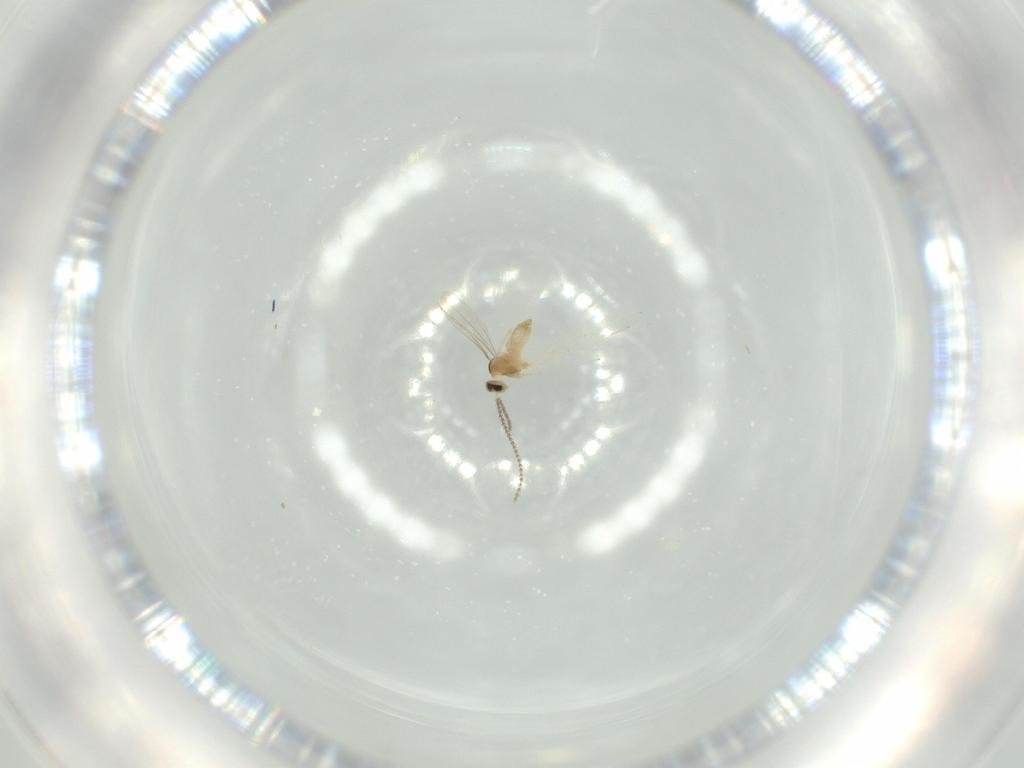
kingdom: Animalia
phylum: Arthropoda
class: Insecta
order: Diptera
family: Cecidomyiidae
